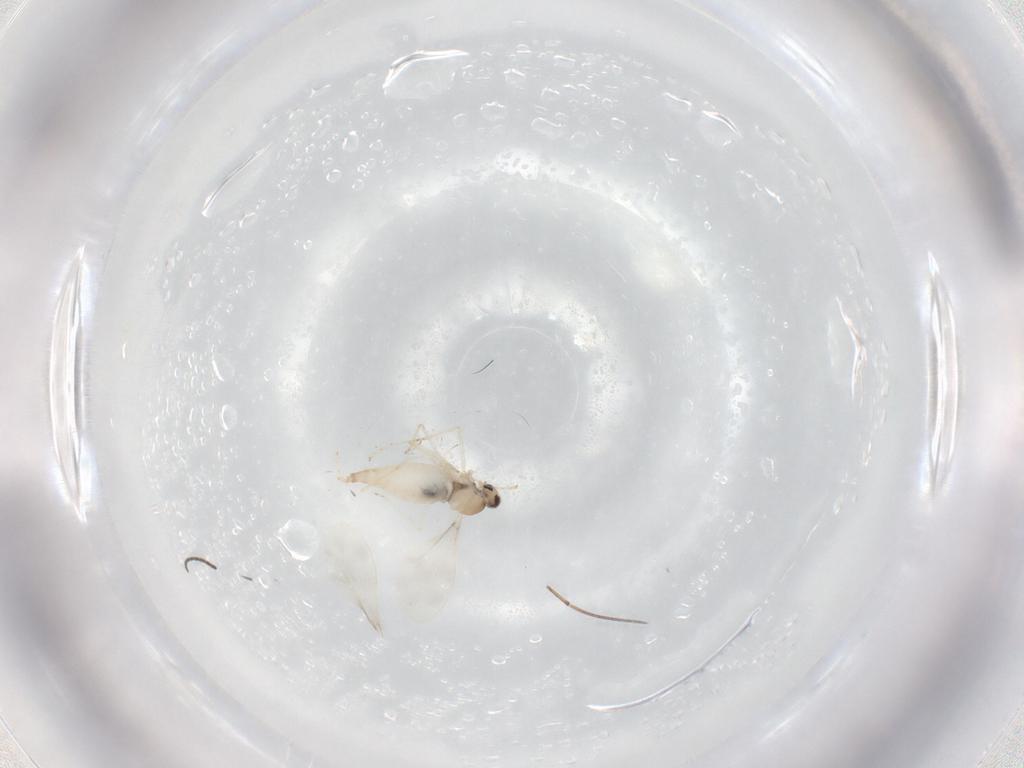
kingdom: Animalia
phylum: Arthropoda
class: Insecta
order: Diptera
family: Cecidomyiidae
